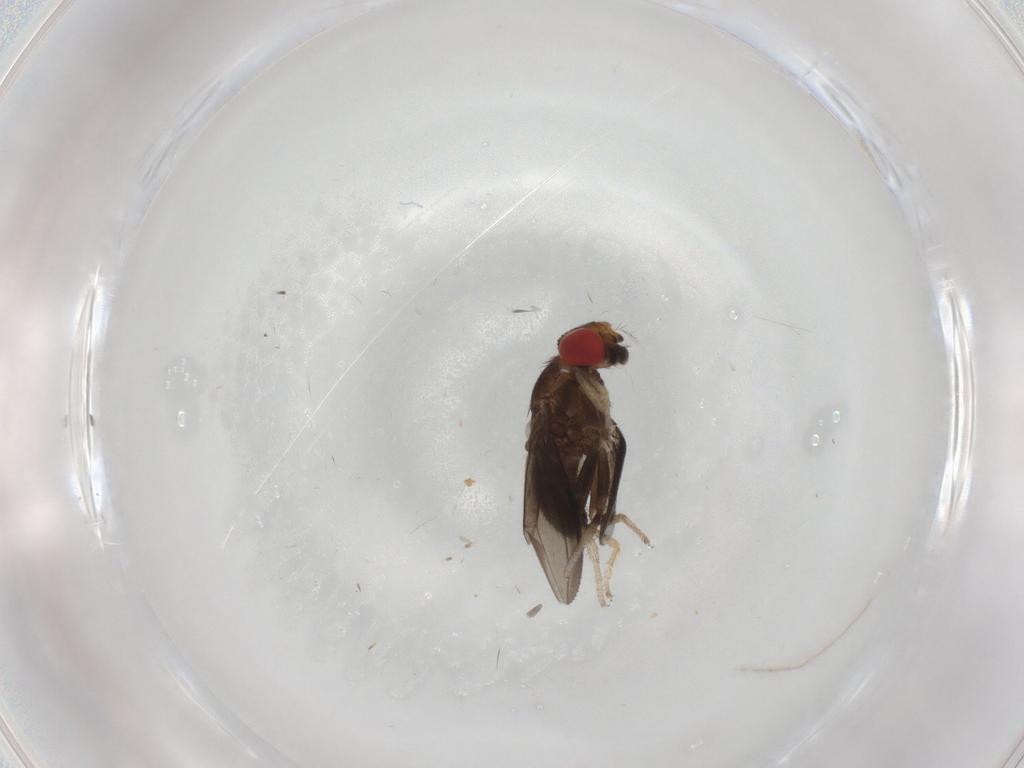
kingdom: Animalia
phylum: Arthropoda
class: Insecta
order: Diptera
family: Drosophilidae
